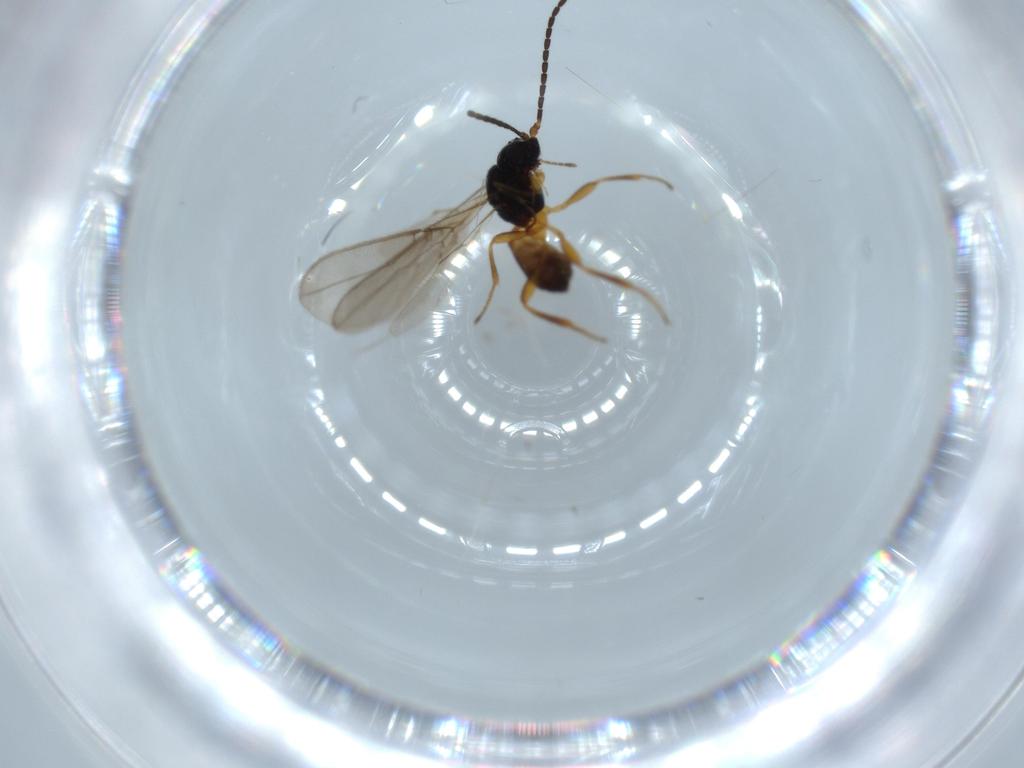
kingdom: Animalia
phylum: Arthropoda
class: Insecta
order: Hymenoptera
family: Braconidae
